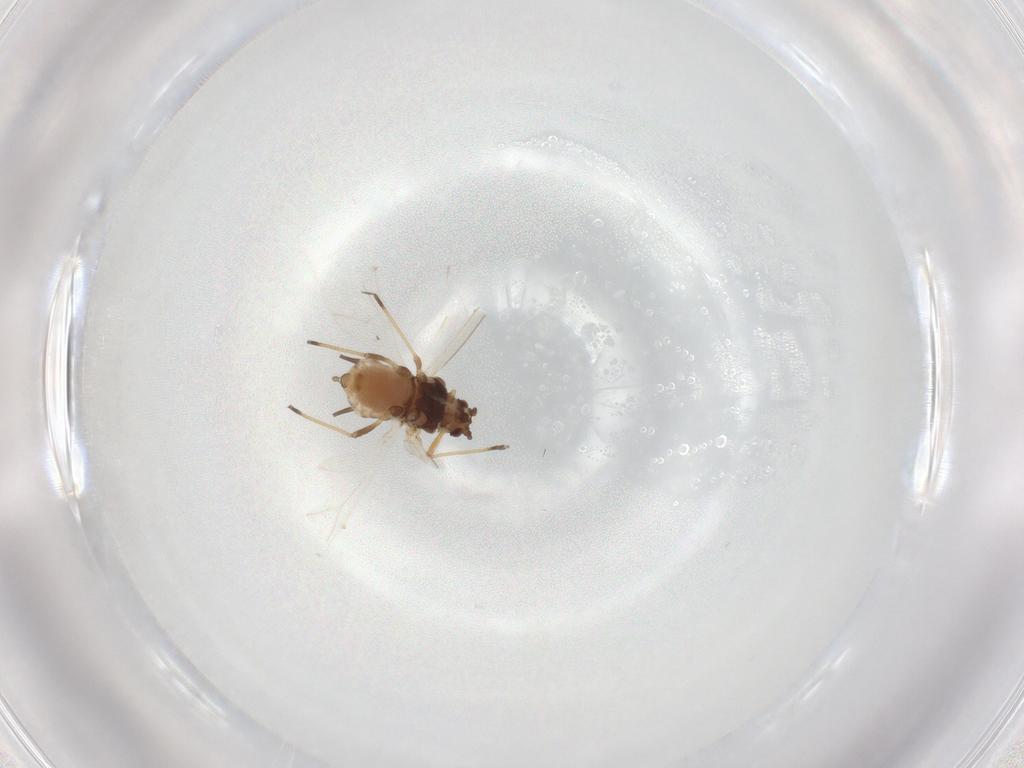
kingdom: Animalia
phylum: Arthropoda
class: Insecta
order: Hemiptera
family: Aphididae
